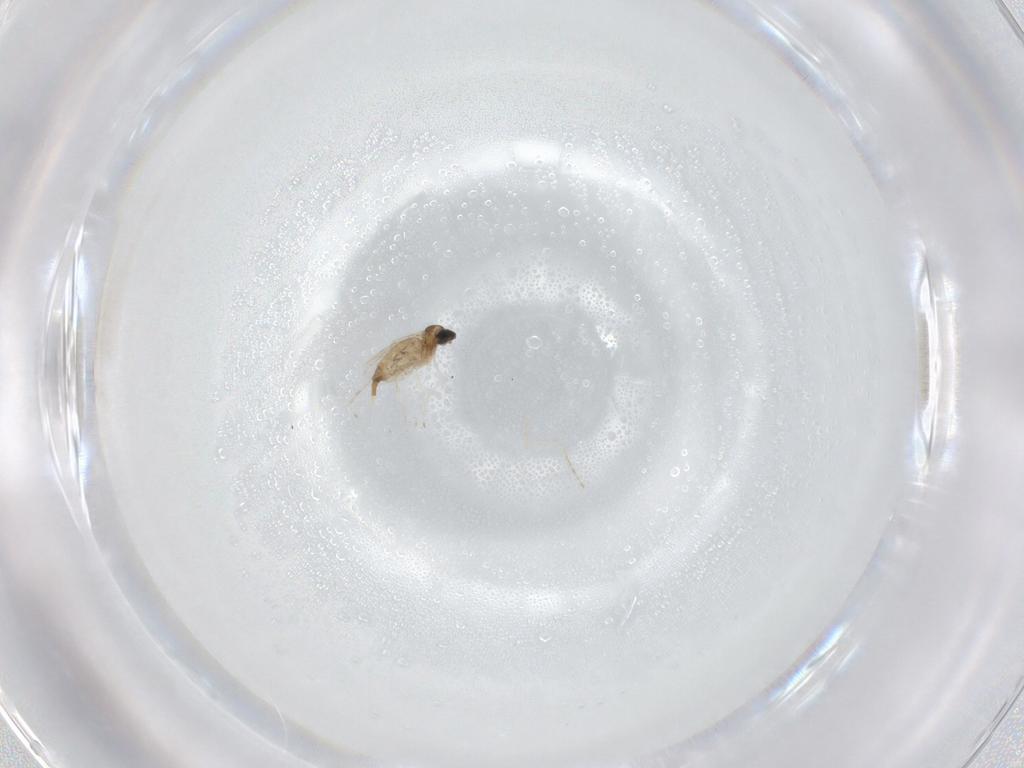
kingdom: Animalia
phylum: Arthropoda
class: Insecta
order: Diptera
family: Cecidomyiidae
